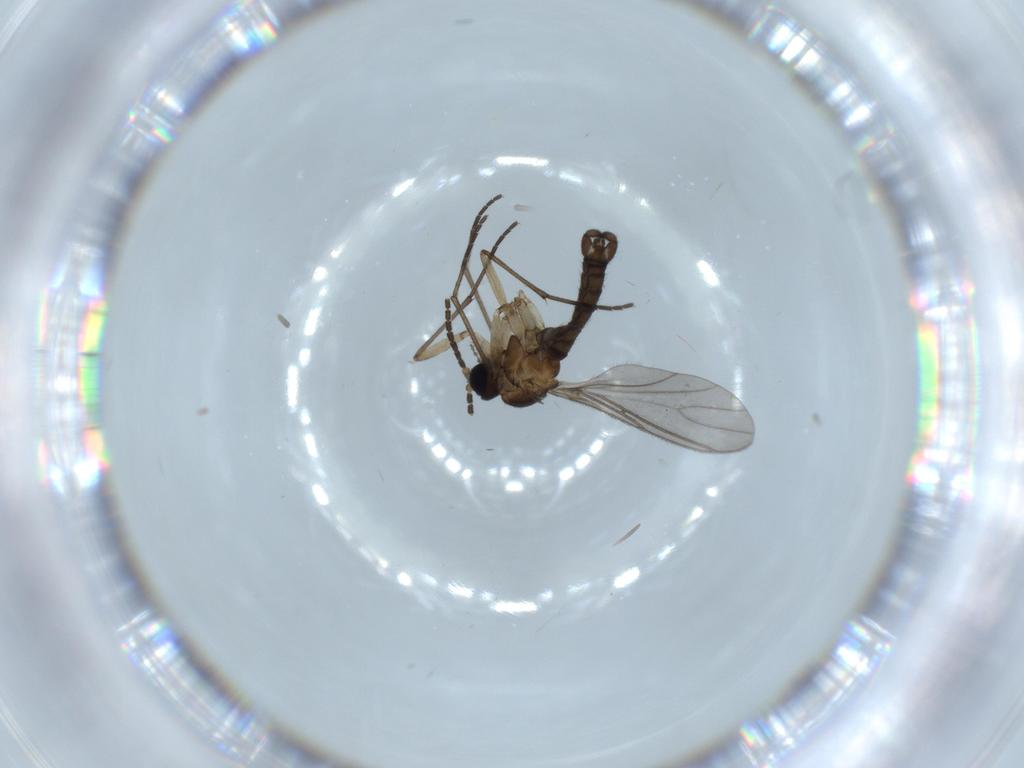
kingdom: Animalia
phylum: Arthropoda
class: Insecta
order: Diptera
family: Sciaridae
